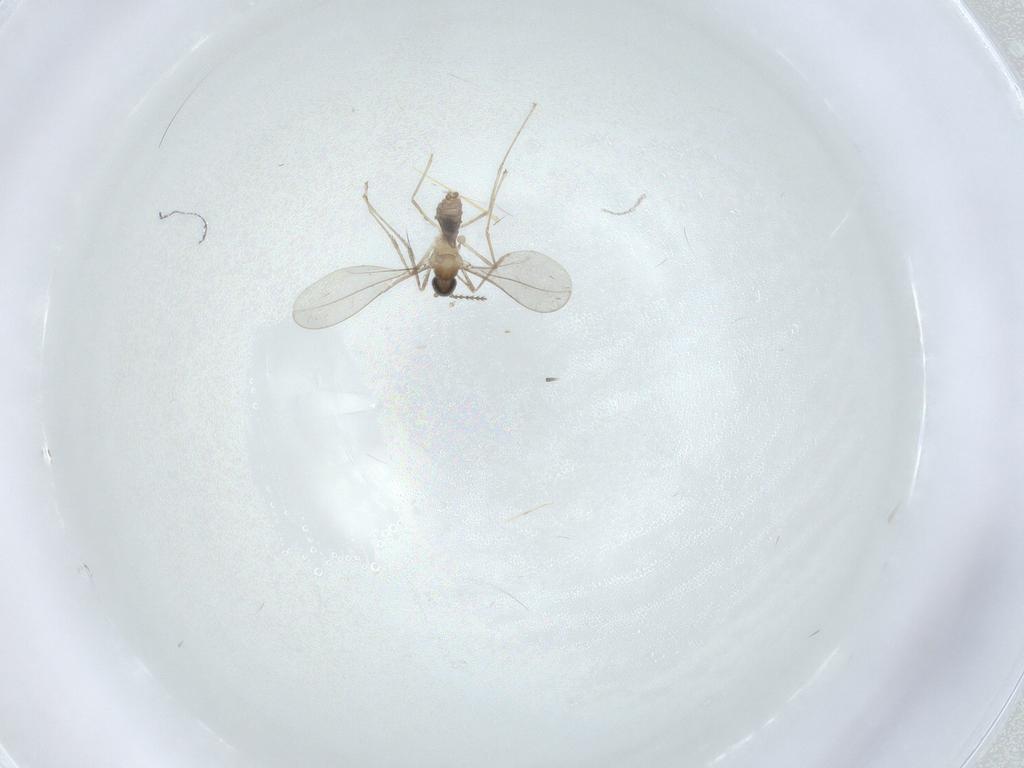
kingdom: Animalia
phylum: Arthropoda
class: Insecta
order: Diptera
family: Cecidomyiidae
